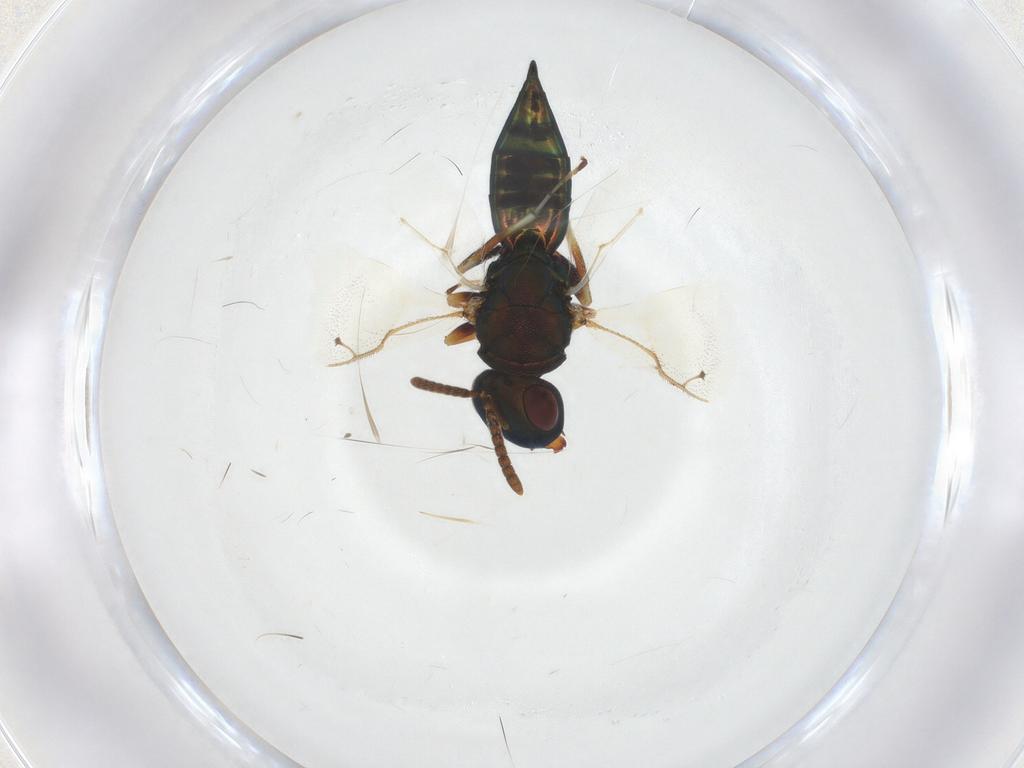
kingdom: Animalia
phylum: Arthropoda
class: Insecta
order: Hymenoptera
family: Pteromalidae
